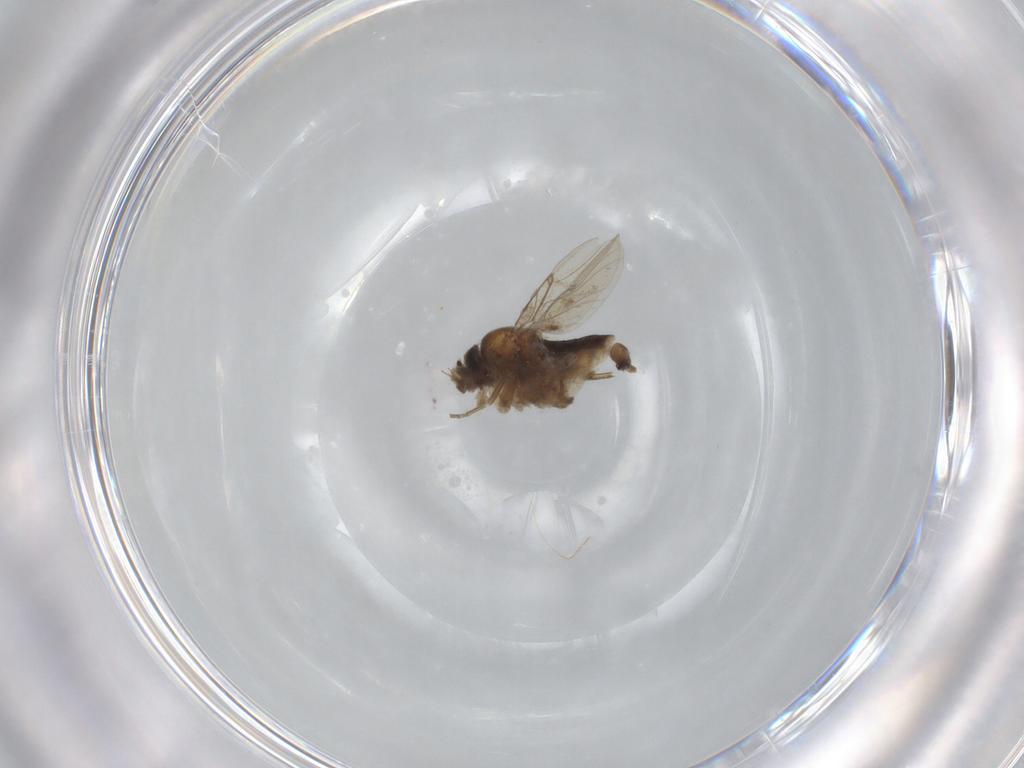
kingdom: Animalia
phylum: Arthropoda
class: Insecta
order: Diptera
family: Cecidomyiidae
